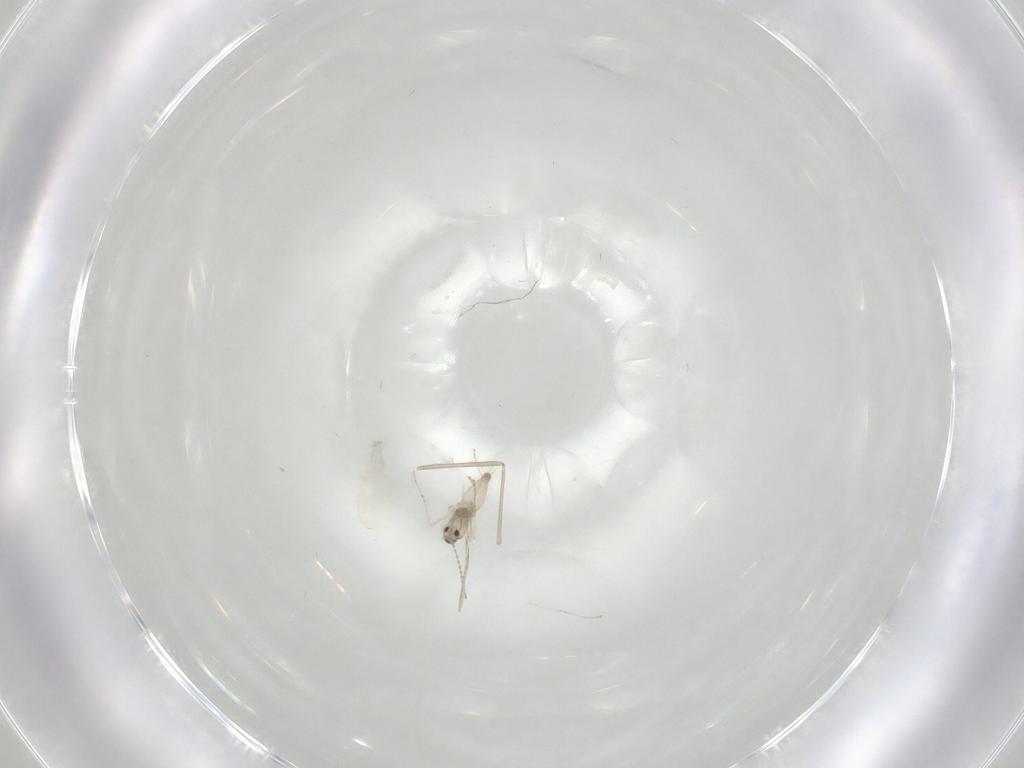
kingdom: Animalia
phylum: Arthropoda
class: Insecta
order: Diptera
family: Cecidomyiidae
